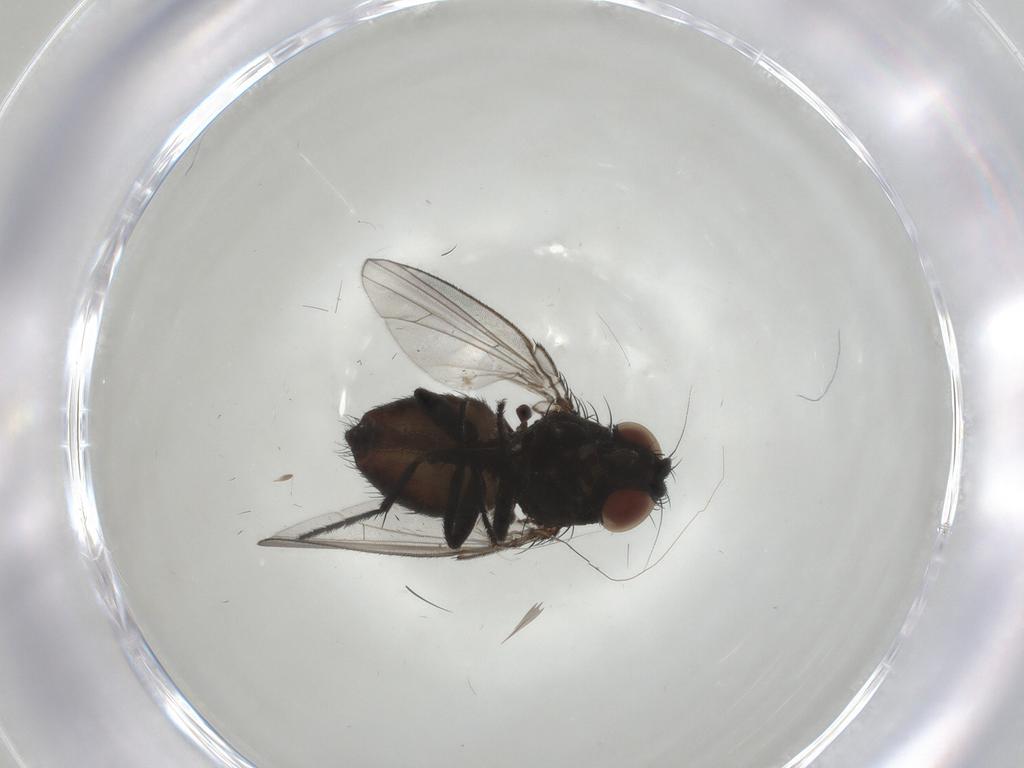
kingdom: Animalia
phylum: Arthropoda
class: Insecta
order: Diptera
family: Milichiidae
